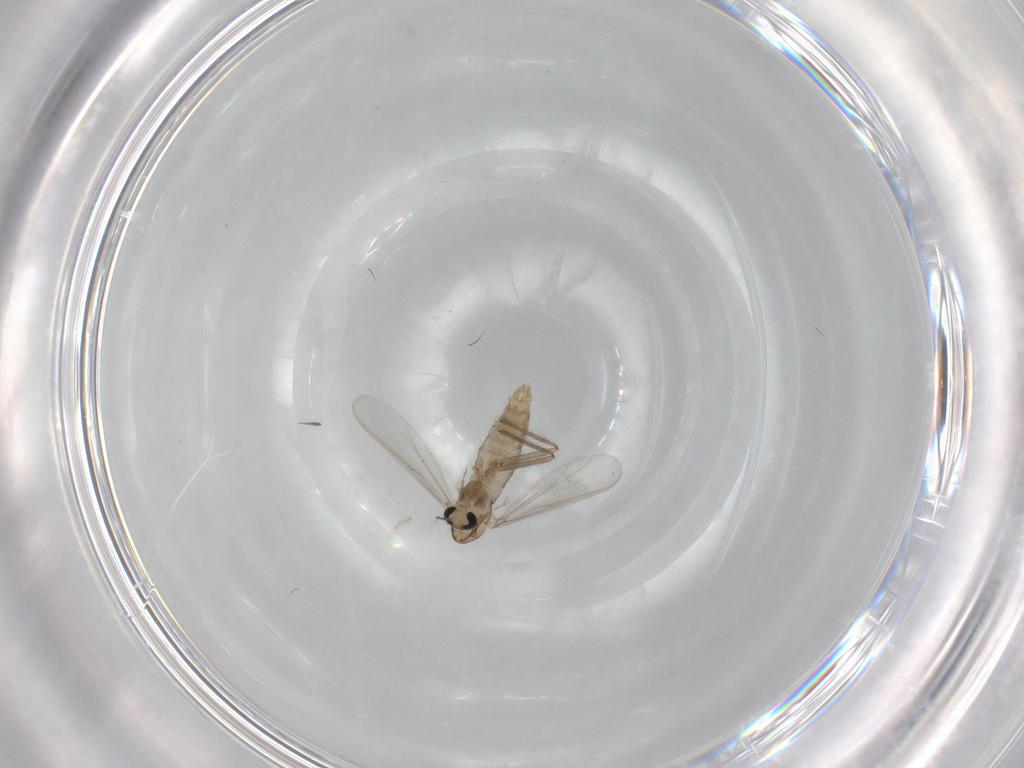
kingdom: Animalia
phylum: Arthropoda
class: Insecta
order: Diptera
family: Chironomidae
